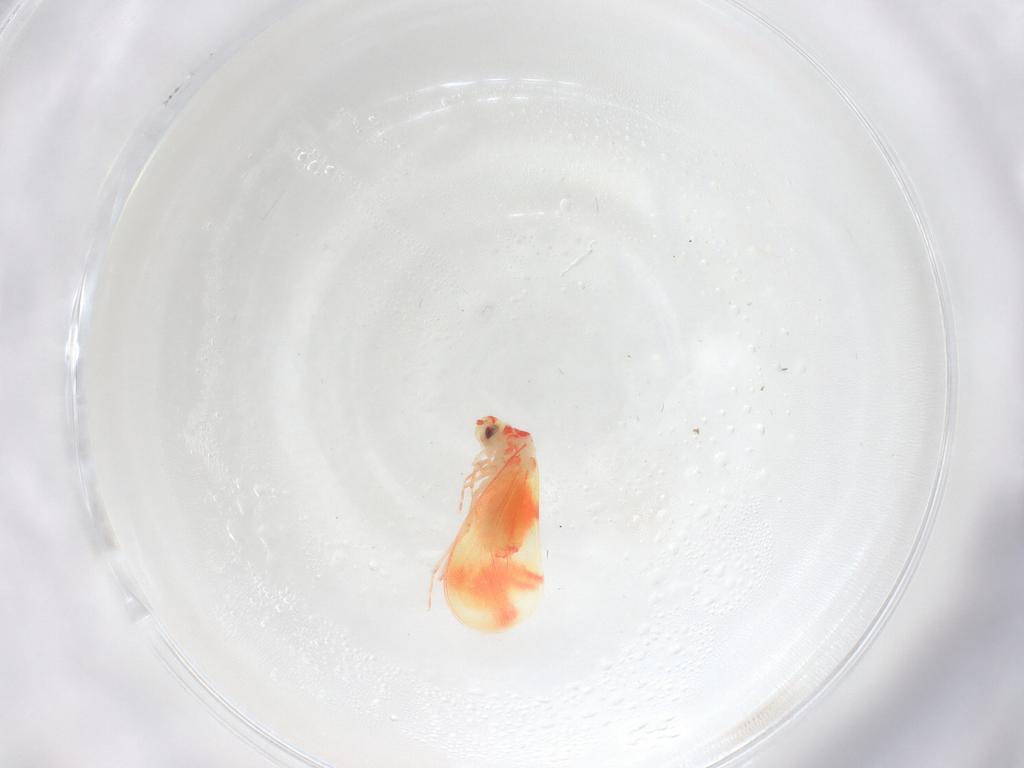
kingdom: Animalia
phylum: Arthropoda
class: Insecta
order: Hemiptera
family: Aleyrodidae
